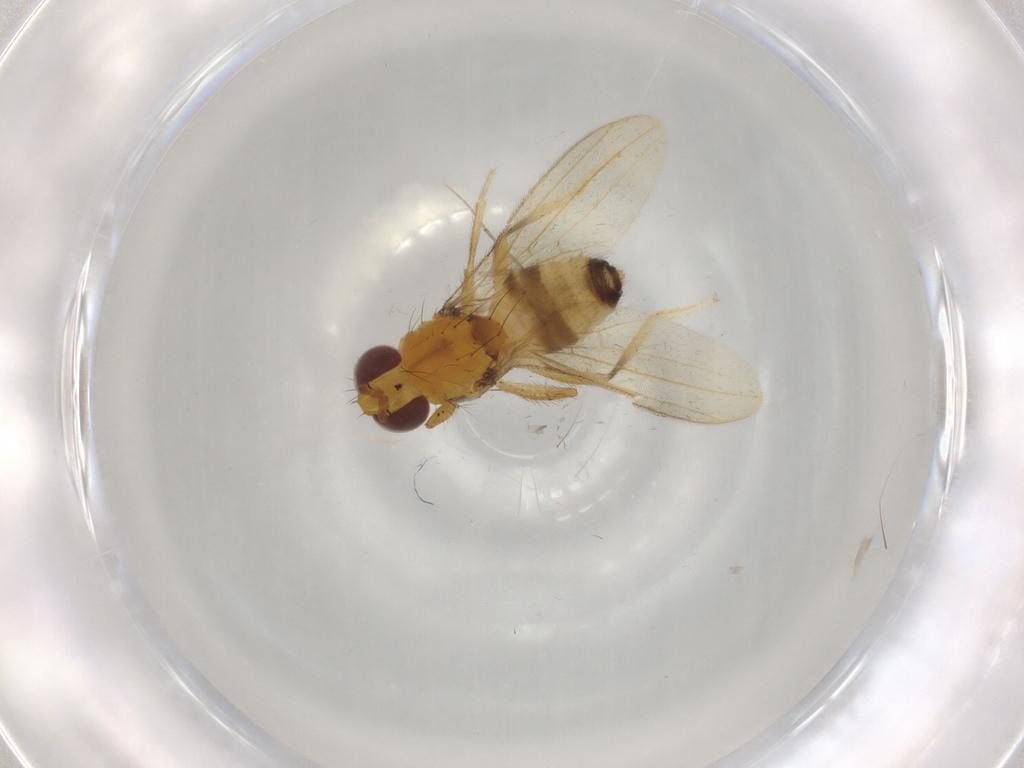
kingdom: Animalia
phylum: Arthropoda
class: Insecta
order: Diptera
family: Periscelididae
